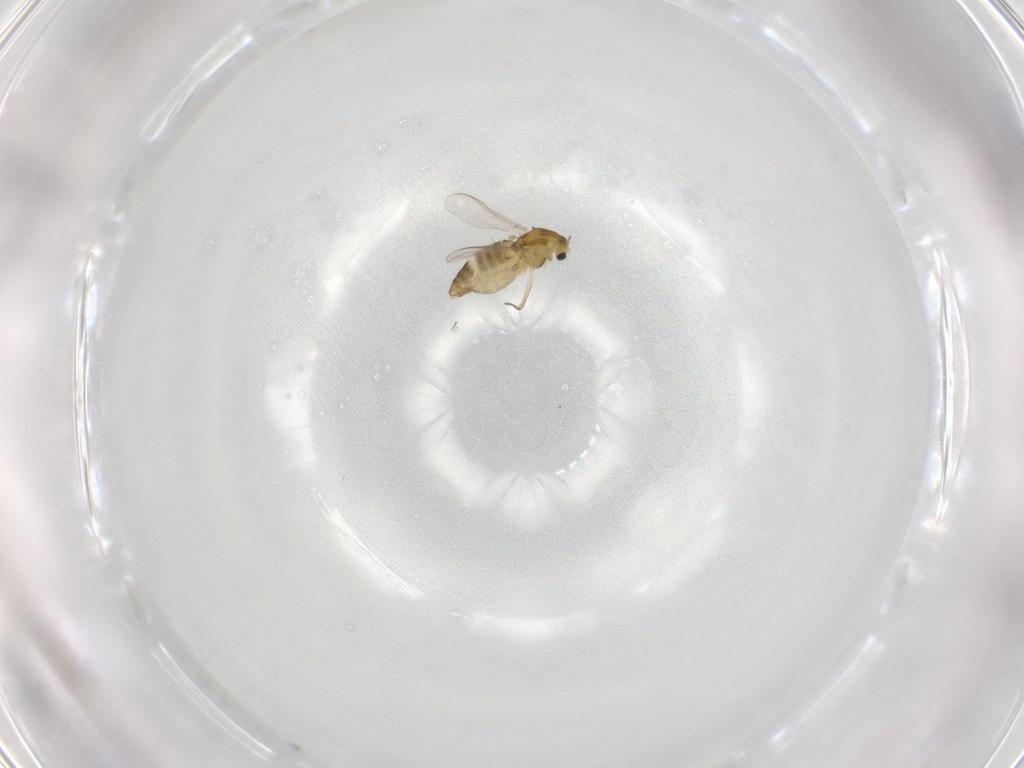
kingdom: Animalia
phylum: Arthropoda
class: Insecta
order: Diptera
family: Chironomidae
